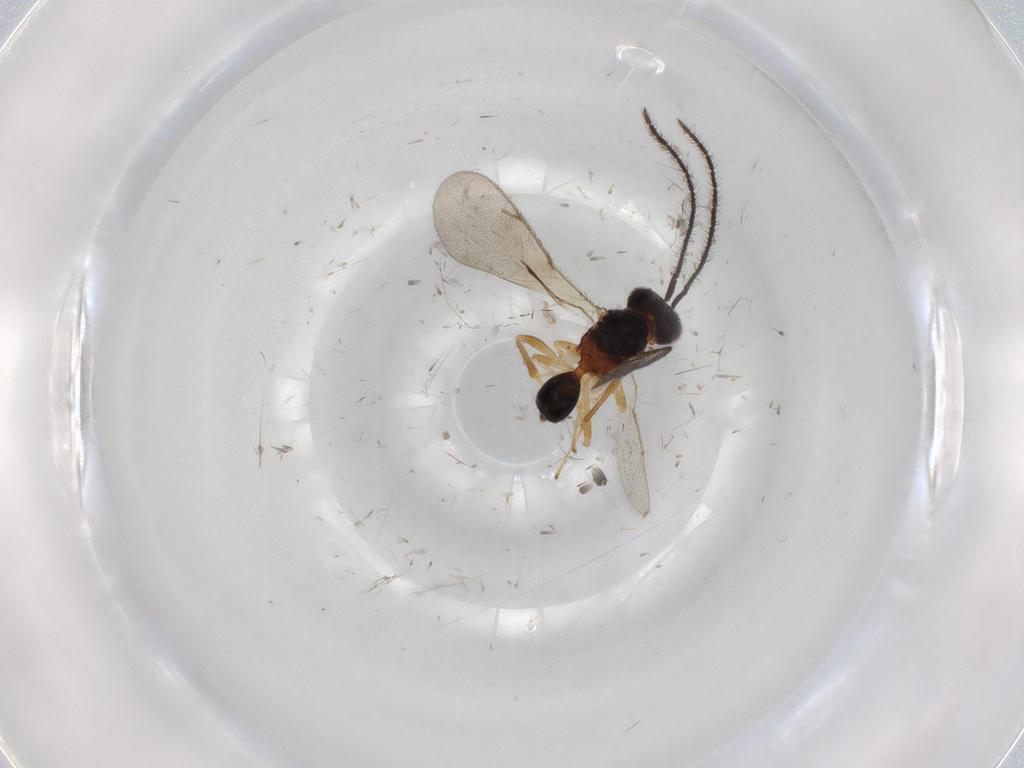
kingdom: Animalia
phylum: Arthropoda
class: Insecta
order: Hymenoptera
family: Diparidae
